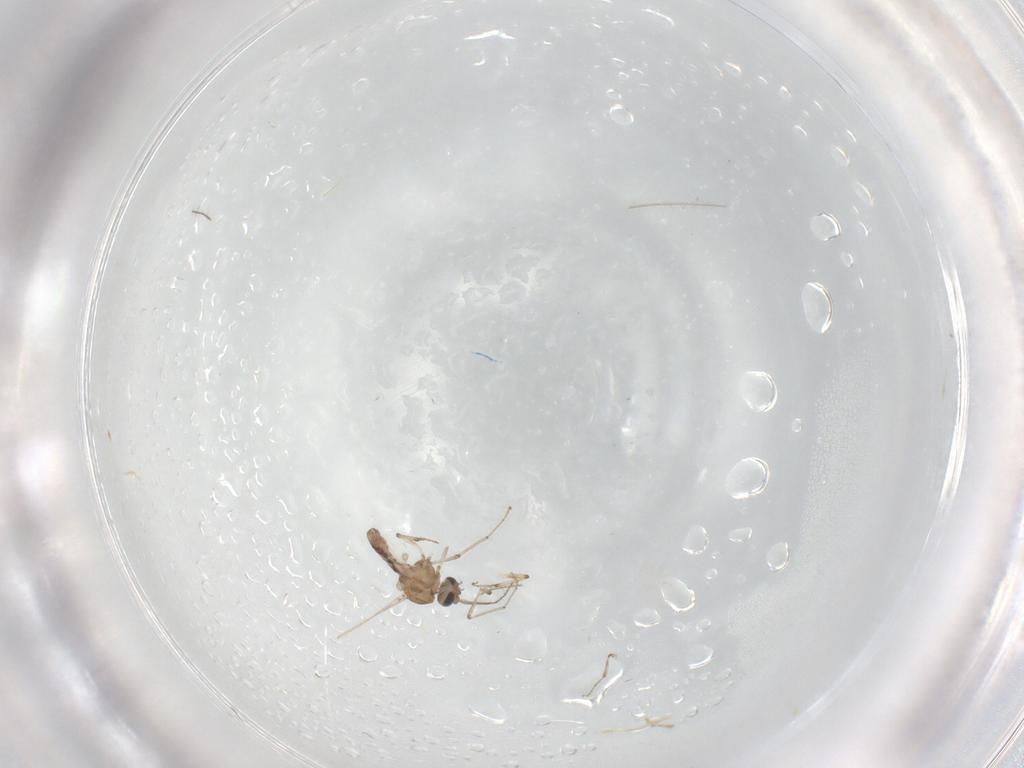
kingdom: Animalia
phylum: Arthropoda
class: Insecta
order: Diptera
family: Ceratopogonidae
